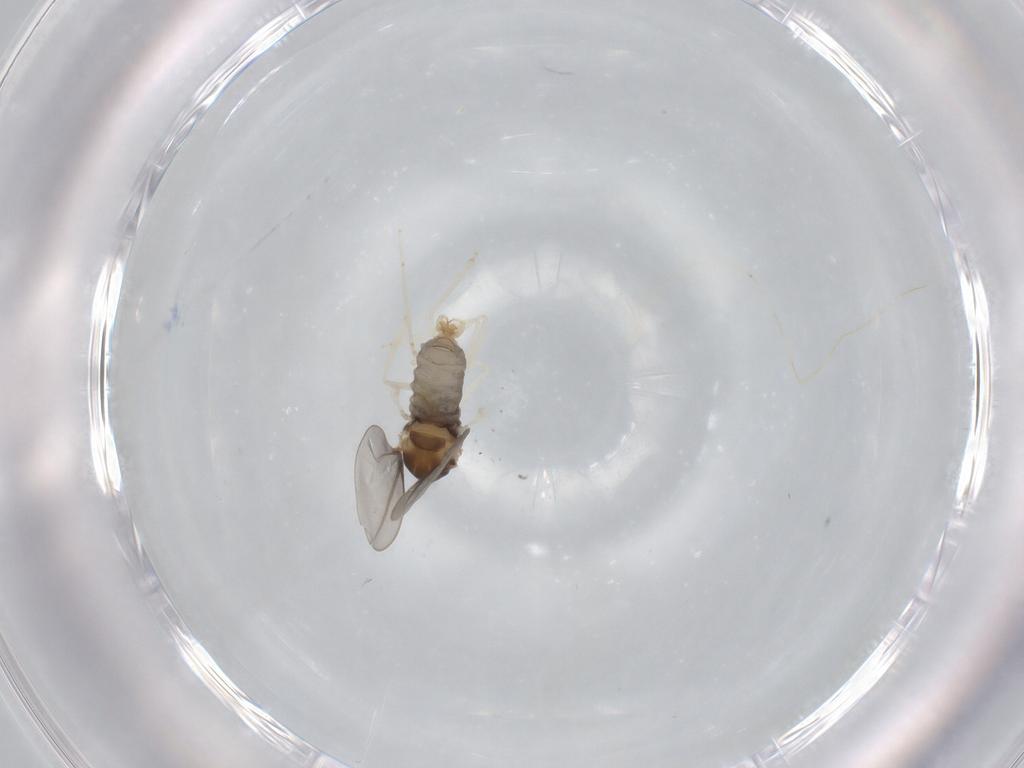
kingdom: Animalia
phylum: Arthropoda
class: Insecta
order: Diptera
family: Cecidomyiidae
